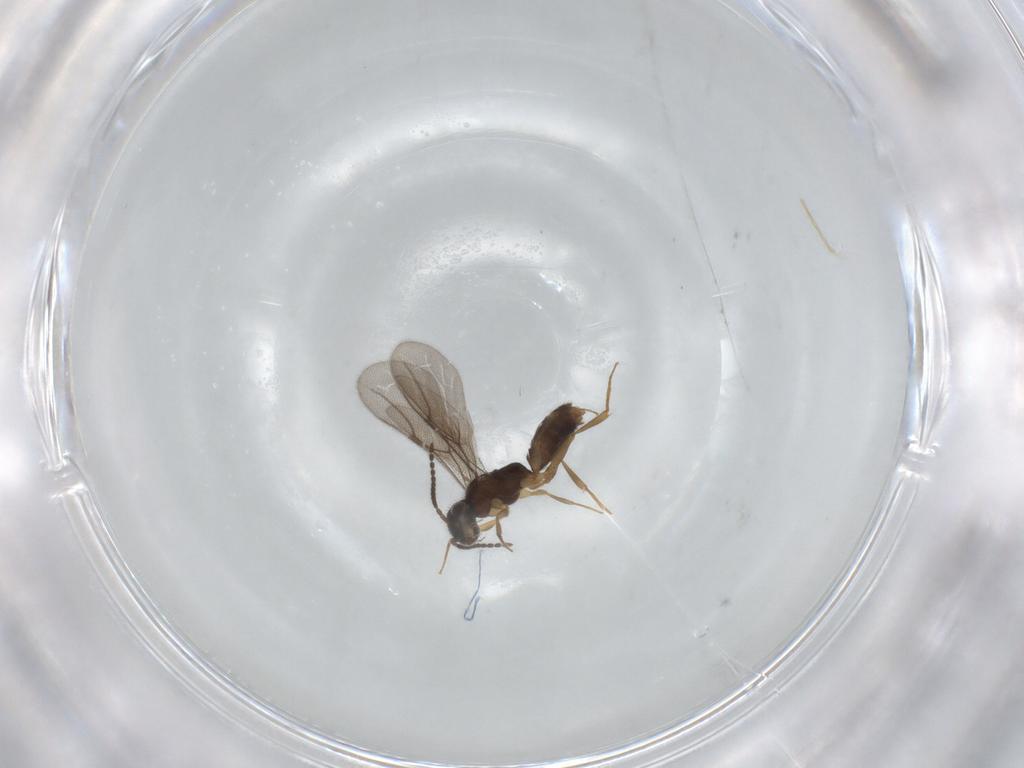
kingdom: Animalia
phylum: Arthropoda
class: Insecta
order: Hymenoptera
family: Bethylidae
